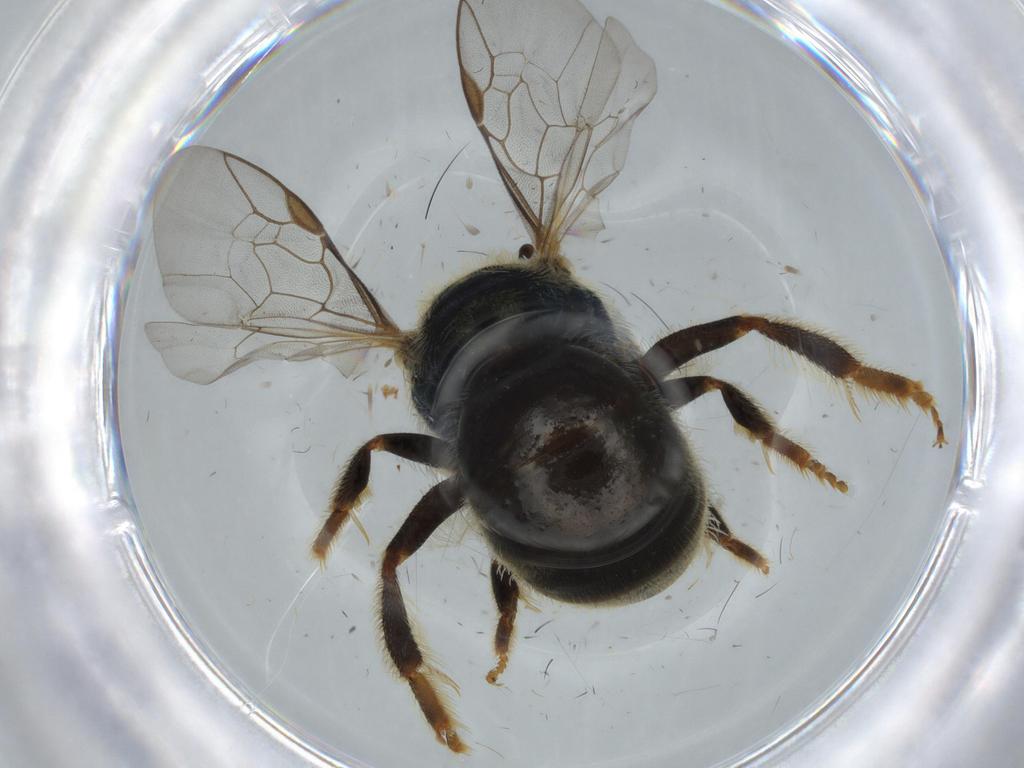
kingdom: Animalia
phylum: Arthropoda
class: Insecta
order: Hymenoptera
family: Halictidae
